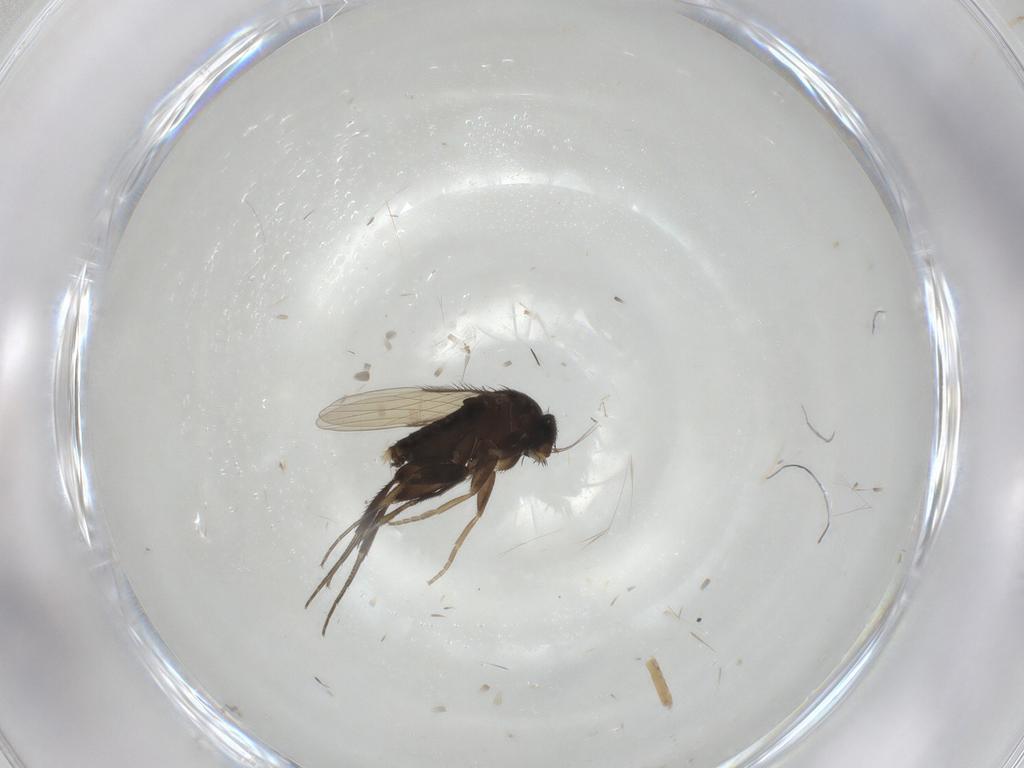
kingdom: Animalia
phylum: Arthropoda
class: Insecta
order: Diptera
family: Phoridae
